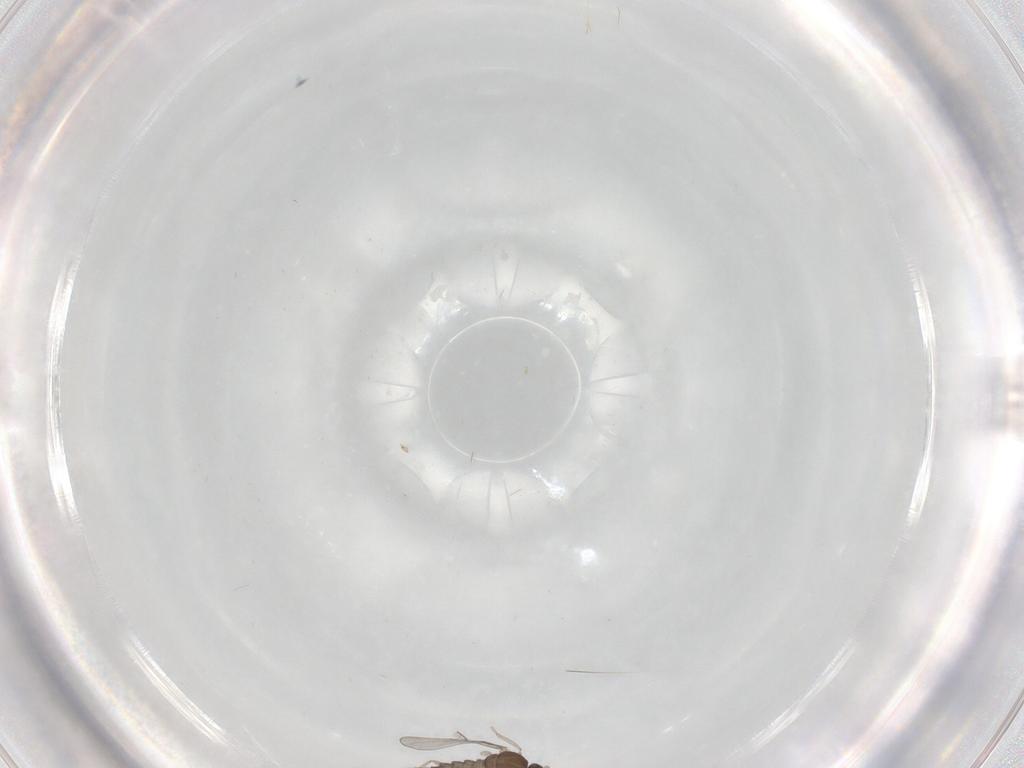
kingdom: Animalia
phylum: Arthropoda
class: Insecta
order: Diptera
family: Cecidomyiidae
